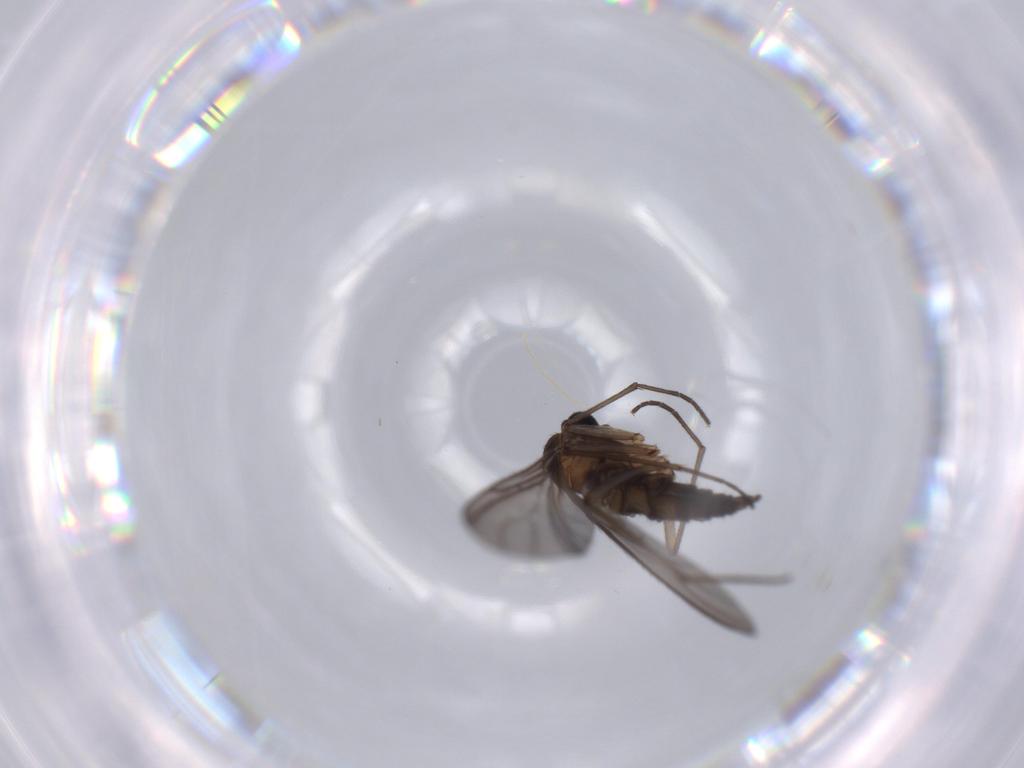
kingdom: Animalia
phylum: Arthropoda
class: Insecta
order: Diptera
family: Sciaridae
